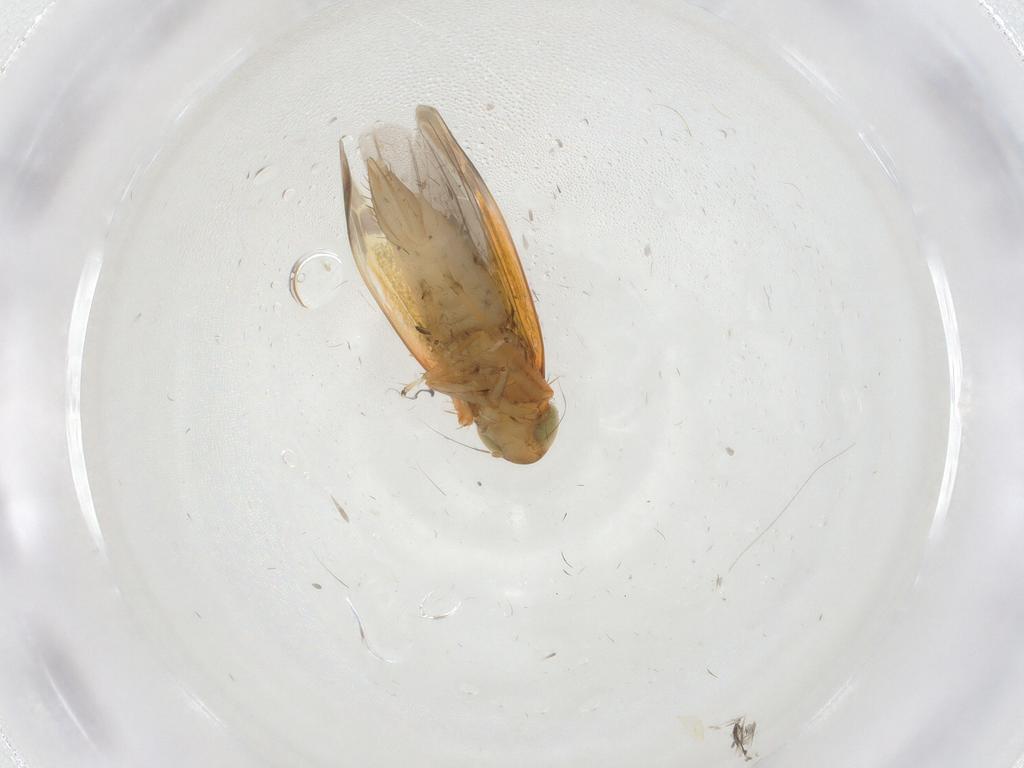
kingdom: Animalia
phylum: Arthropoda
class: Insecta
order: Hemiptera
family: Cicadellidae
